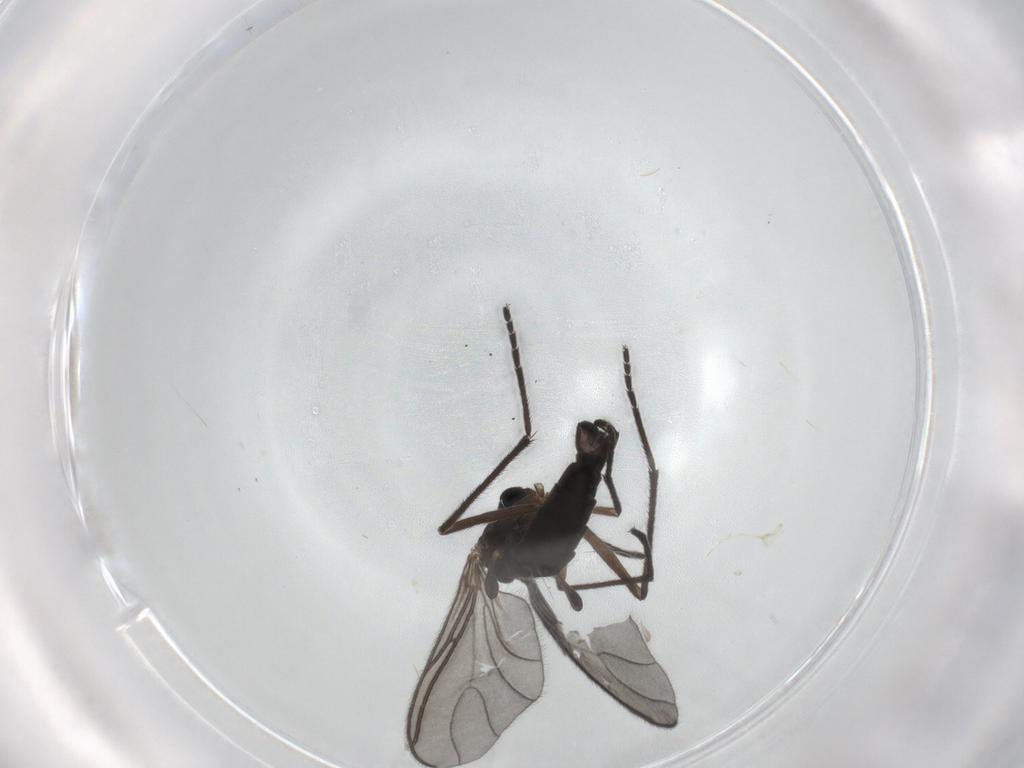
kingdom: Animalia
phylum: Arthropoda
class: Insecta
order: Diptera
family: Sciaridae
